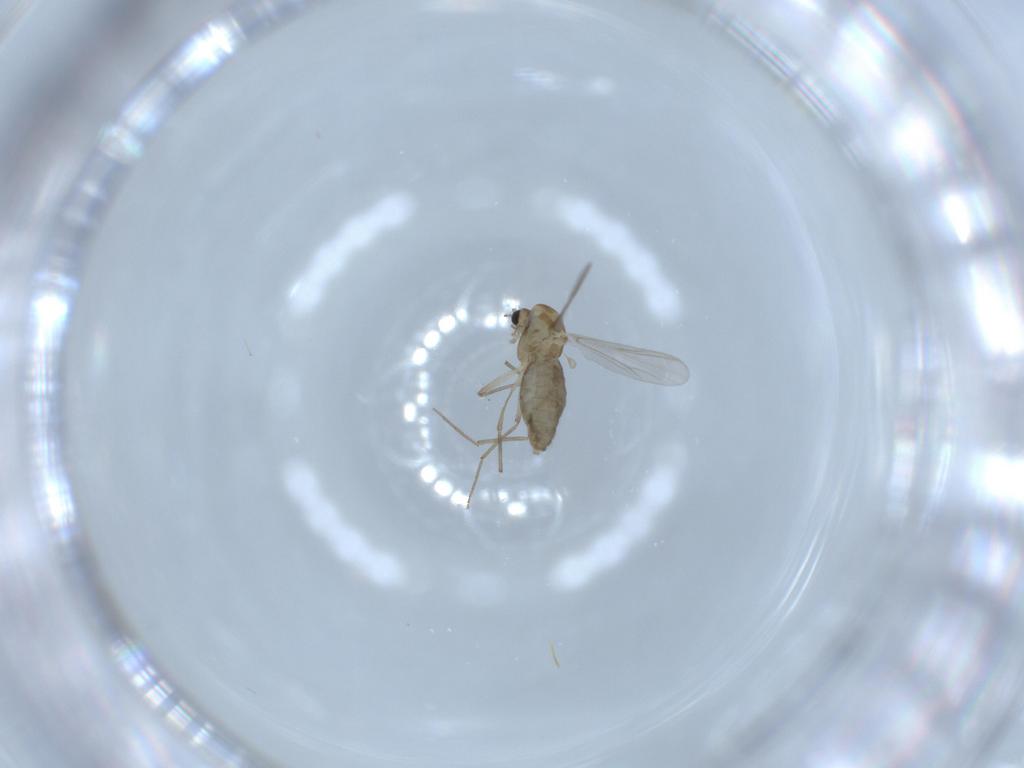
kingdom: Animalia
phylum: Arthropoda
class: Insecta
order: Diptera
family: Chironomidae
